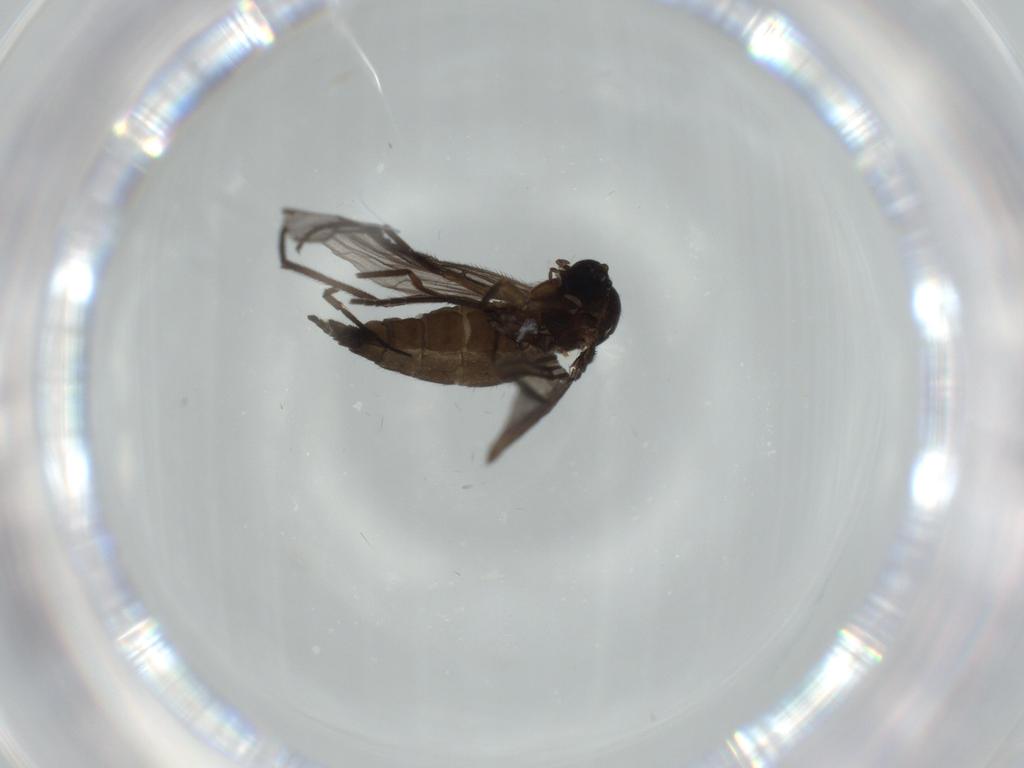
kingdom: Animalia
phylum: Arthropoda
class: Insecta
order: Diptera
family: Sciaridae
